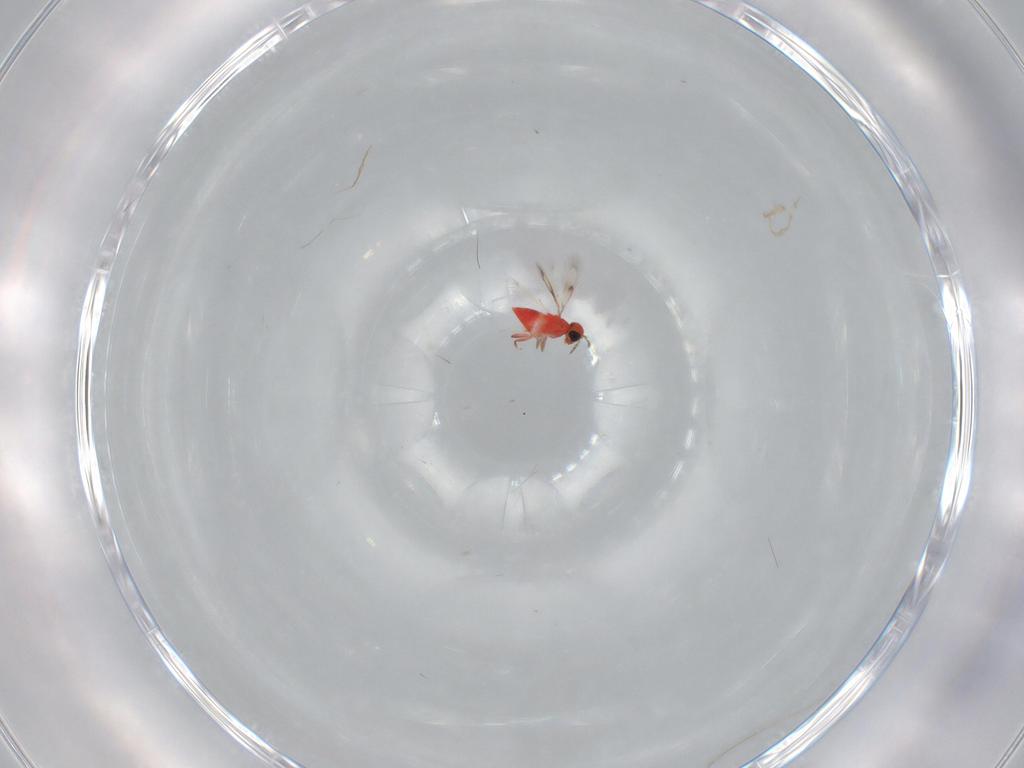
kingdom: Animalia
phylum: Arthropoda
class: Insecta
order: Hymenoptera
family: Trichogrammatidae
